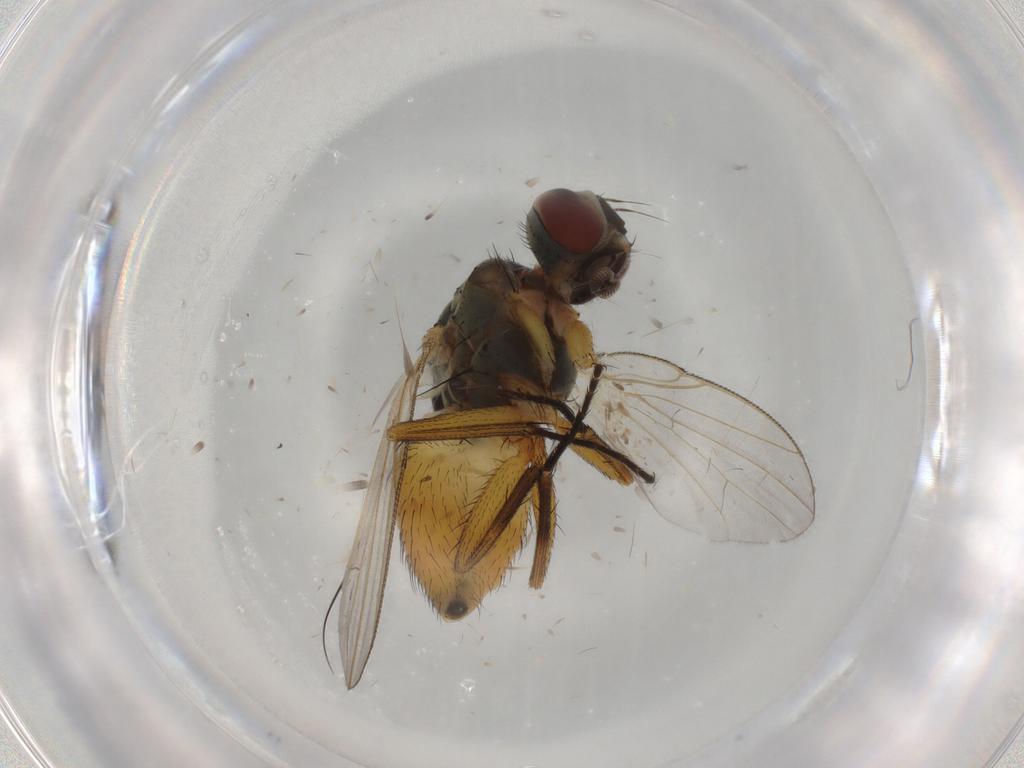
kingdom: Animalia
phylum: Arthropoda
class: Insecta
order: Diptera
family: Muscidae
